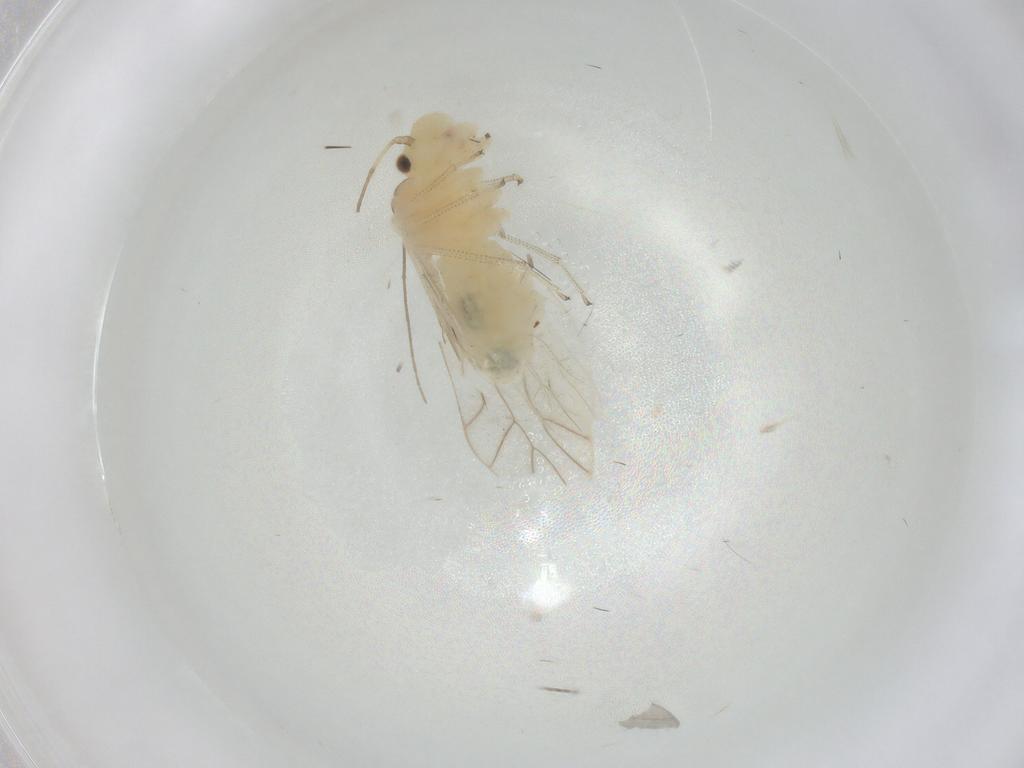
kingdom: Animalia
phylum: Arthropoda
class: Insecta
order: Psocodea
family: Caeciliusidae
